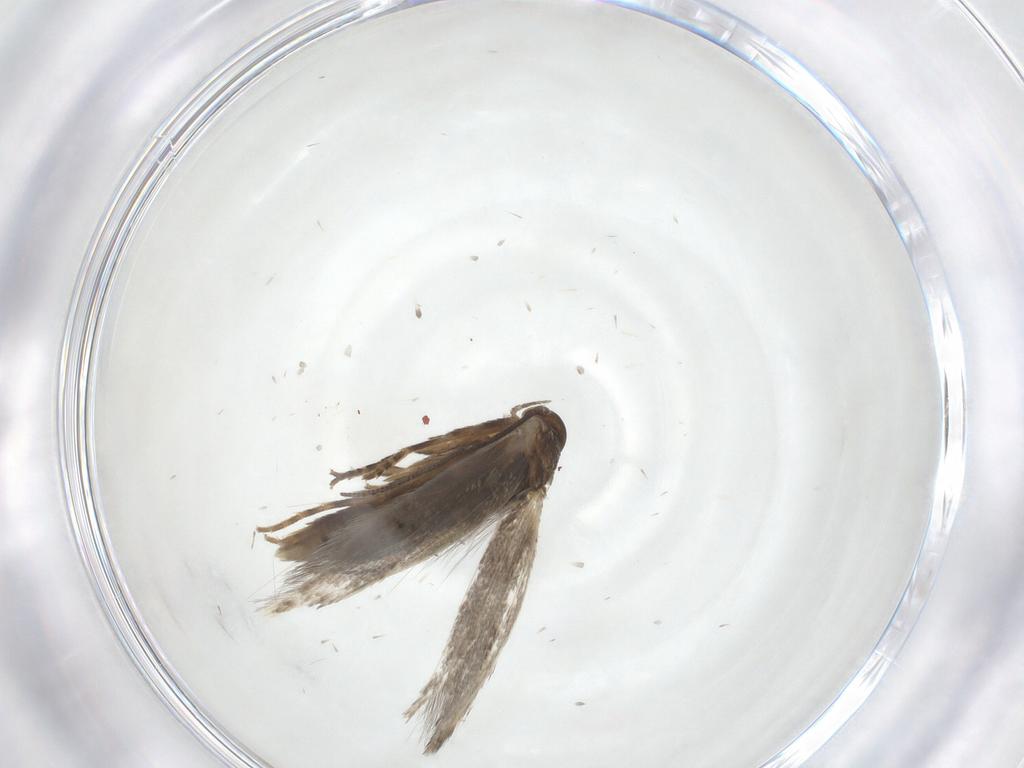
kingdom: Animalia
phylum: Arthropoda
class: Insecta
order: Lepidoptera
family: Elachistidae
